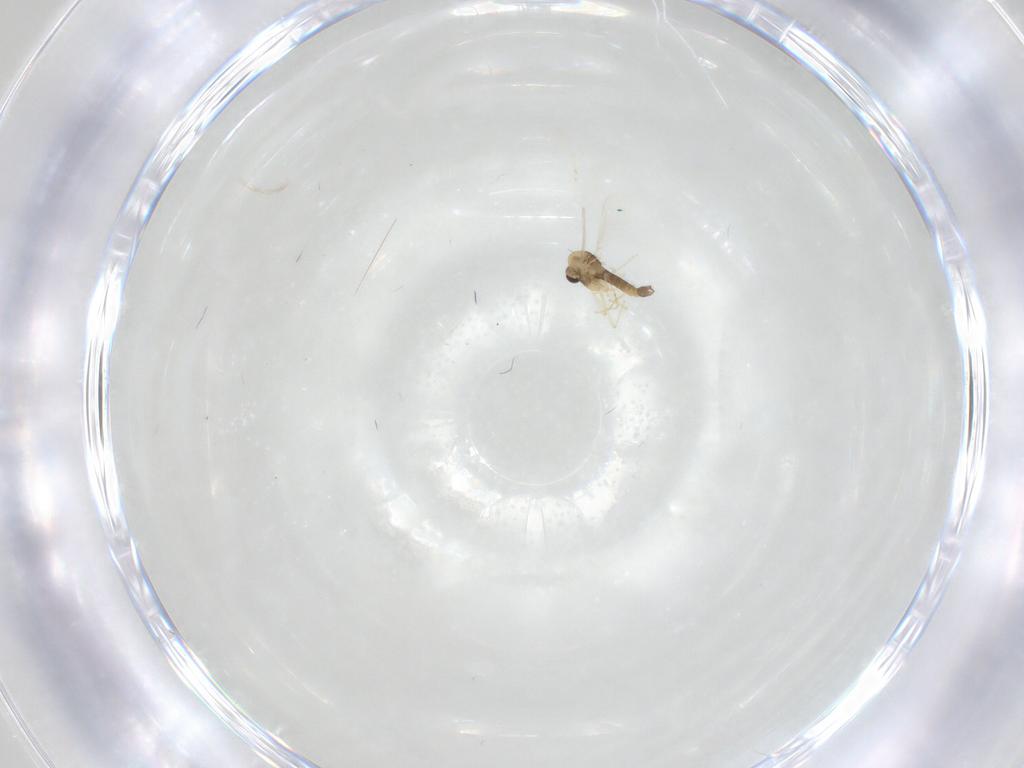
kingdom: Animalia
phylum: Arthropoda
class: Insecta
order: Diptera
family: Chironomidae
